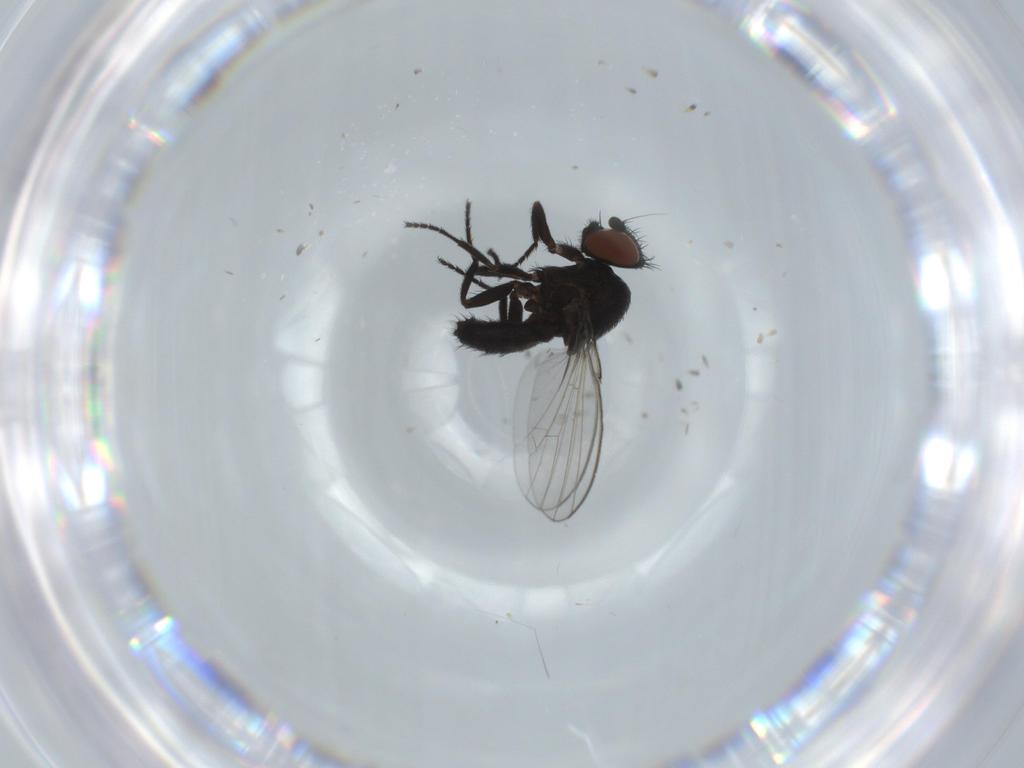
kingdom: Animalia
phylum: Arthropoda
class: Insecta
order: Diptera
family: Milichiidae
